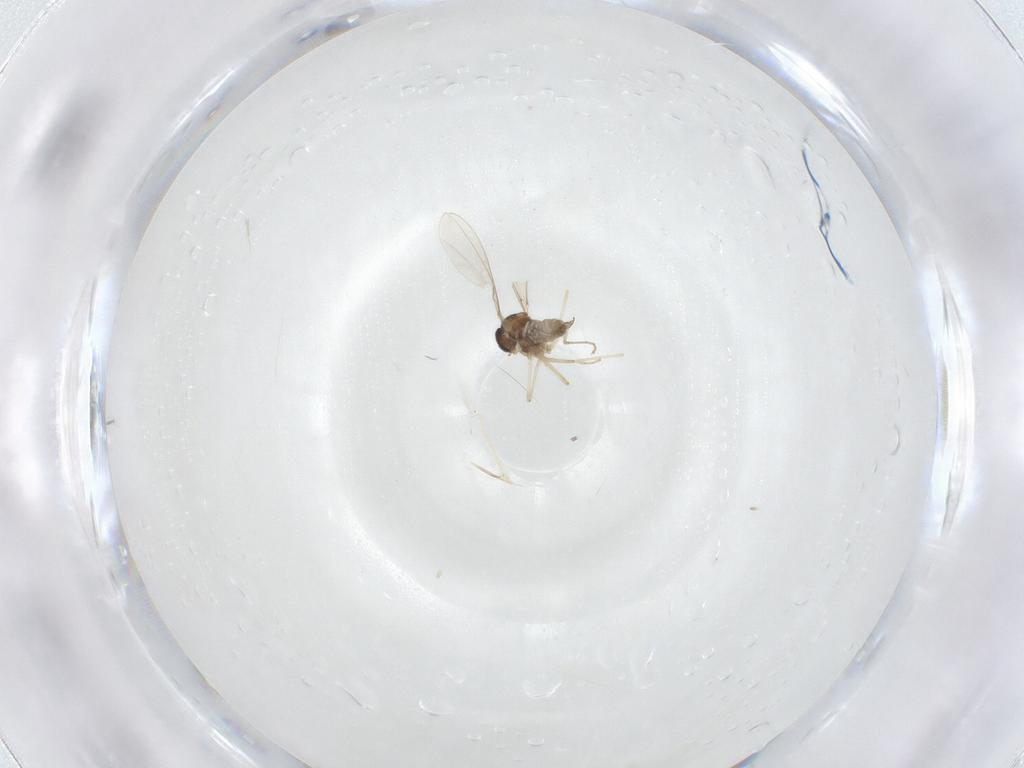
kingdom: Animalia
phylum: Arthropoda
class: Insecta
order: Diptera
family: Cecidomyiidae
